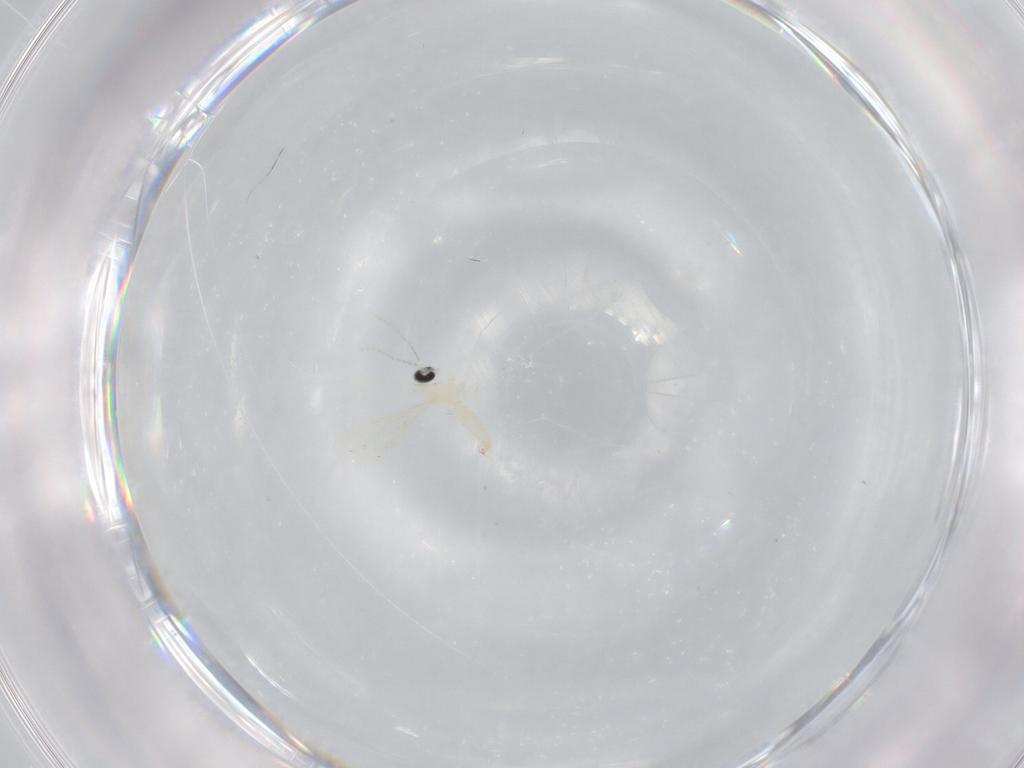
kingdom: Animalia
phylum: Arthropoda
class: Insecta
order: Diptera
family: Cecidomyiidae
